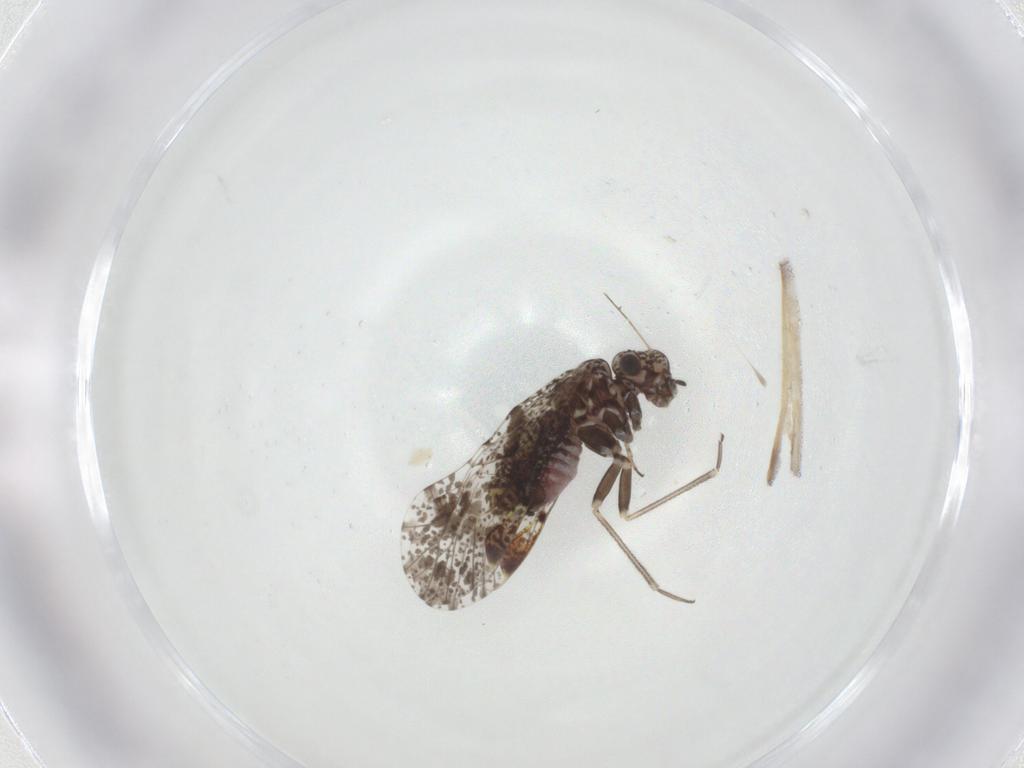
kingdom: Animalia
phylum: Arthropoda
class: Insecta
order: Psocodea
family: Psocidae
